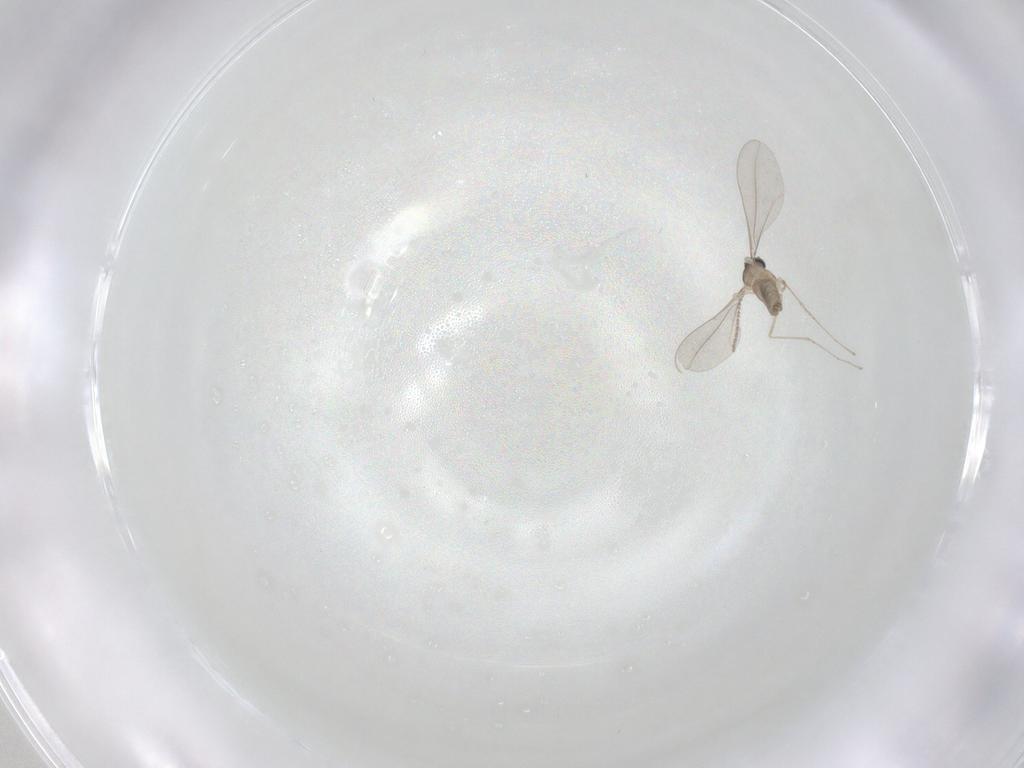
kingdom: Animalia
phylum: Arthropoda
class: Insecta
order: Diptera
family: Cecidomyiidae
